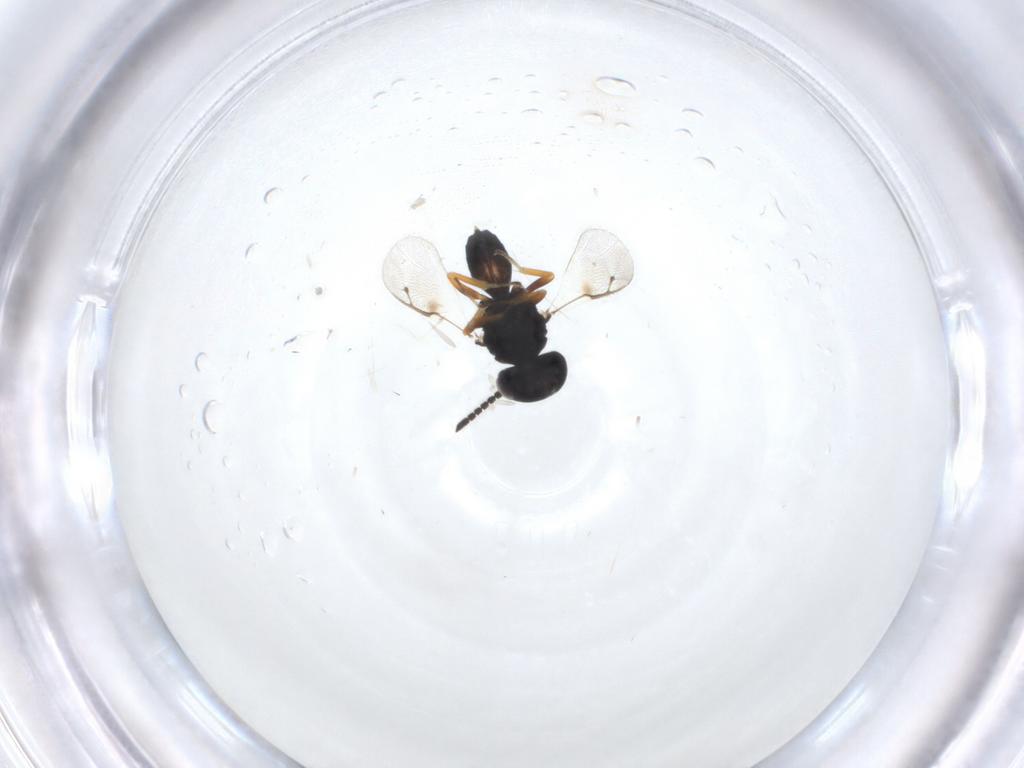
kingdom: Animalia
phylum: Arthropoda
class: Insecta
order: Hymenoptera
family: Pteromalidae
